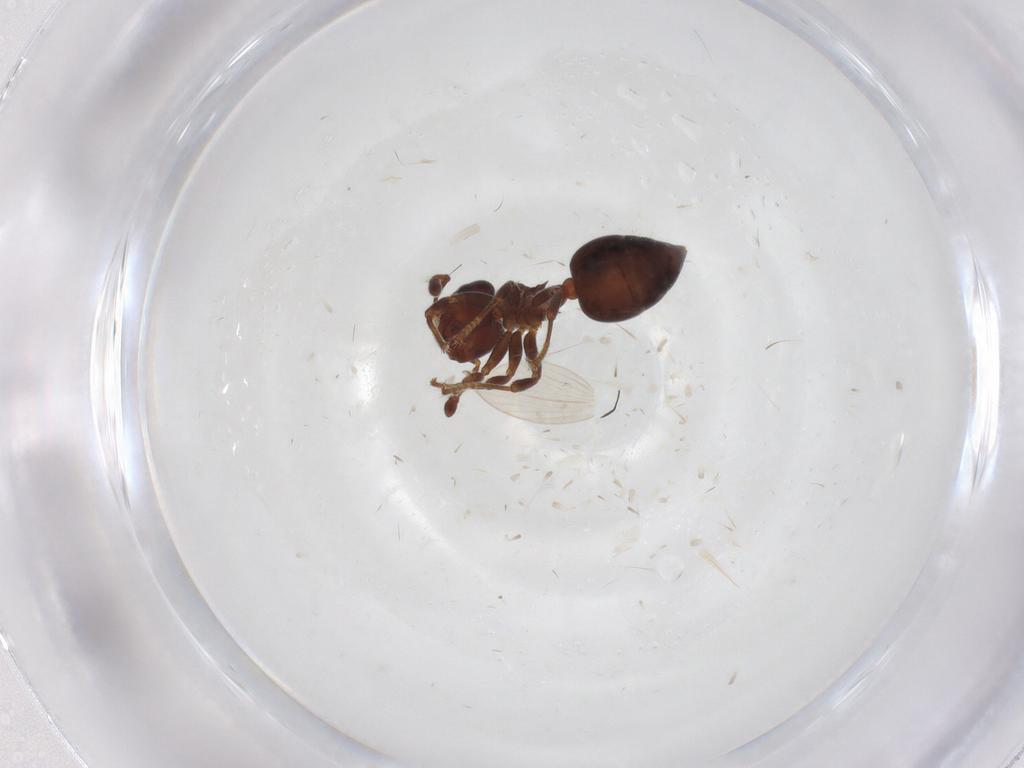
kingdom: Animalia
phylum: Arthropoda
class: Insecta
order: Hymenoptera
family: Formicidae
